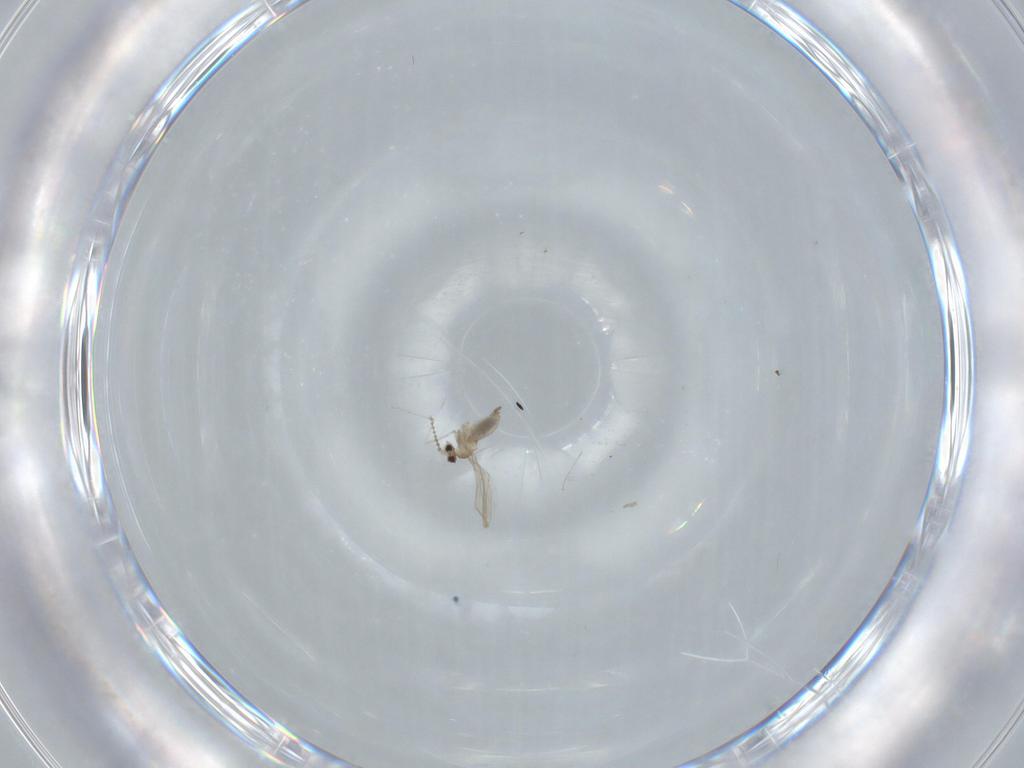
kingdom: Animalia
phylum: Arthropoda
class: Insecta
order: Diptera
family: Cecidomyiidae
